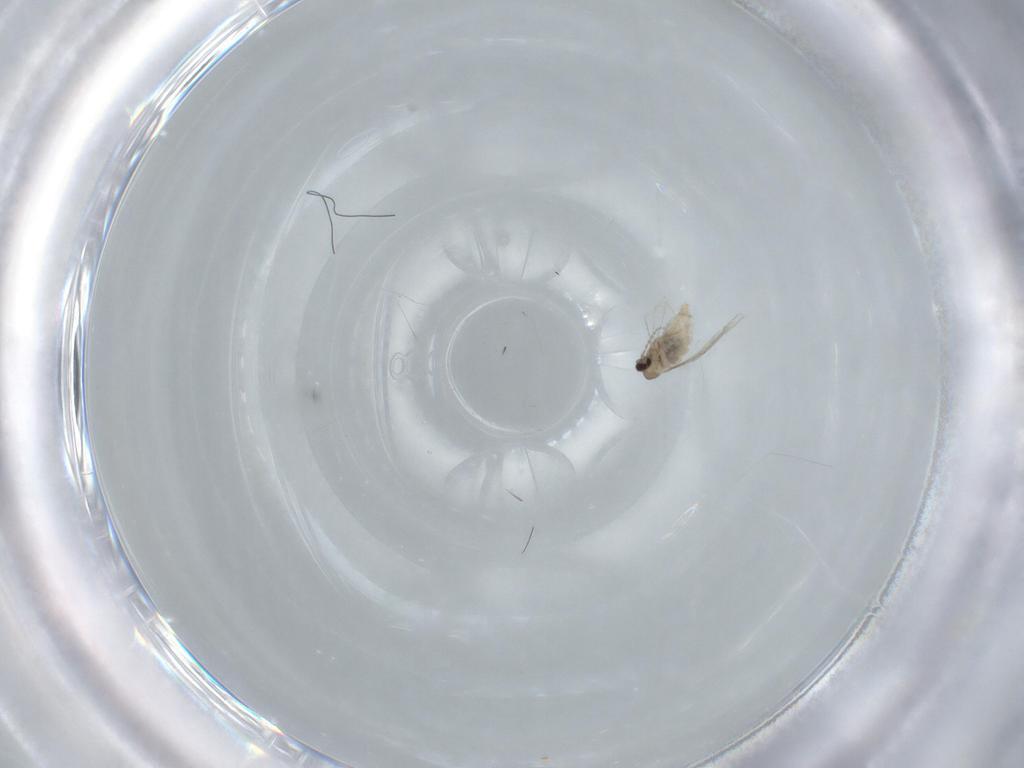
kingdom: Animalia
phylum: Arthropoda
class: Insecta
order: Diptera
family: Cecidomyiidae
